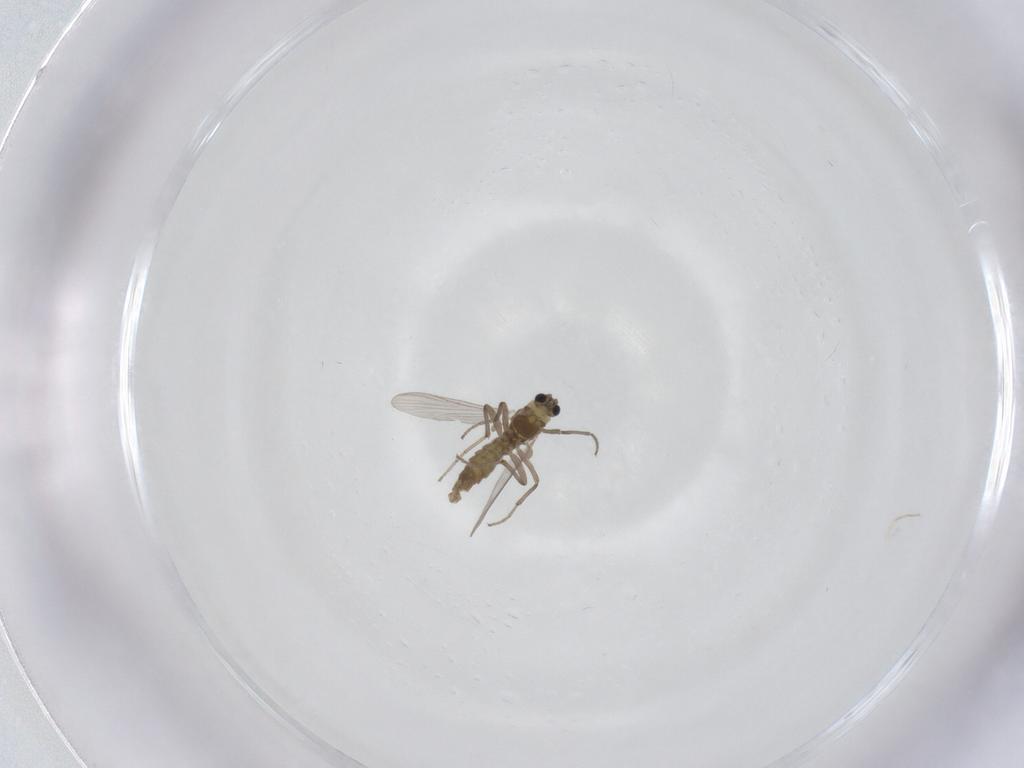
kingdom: Animalia
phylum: Arthropoda
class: Insecta
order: Diptera
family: Chironomidae
